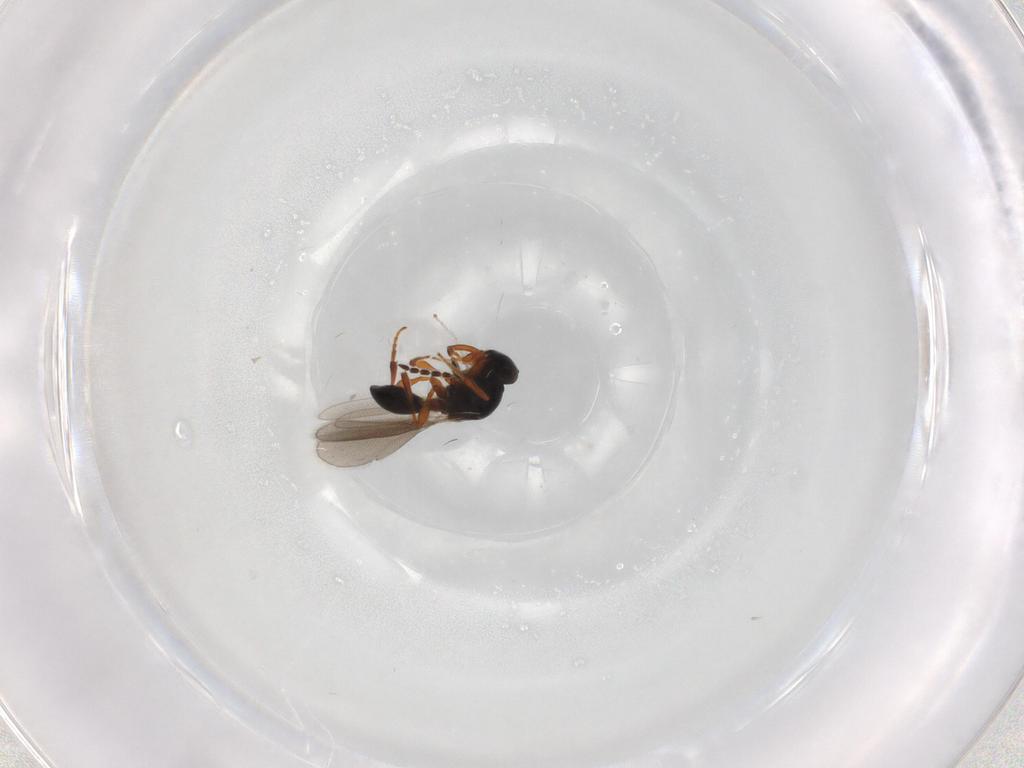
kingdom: Animalia
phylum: Arthropoda
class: Insecta
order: Hymenoptera
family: Platygastridae
